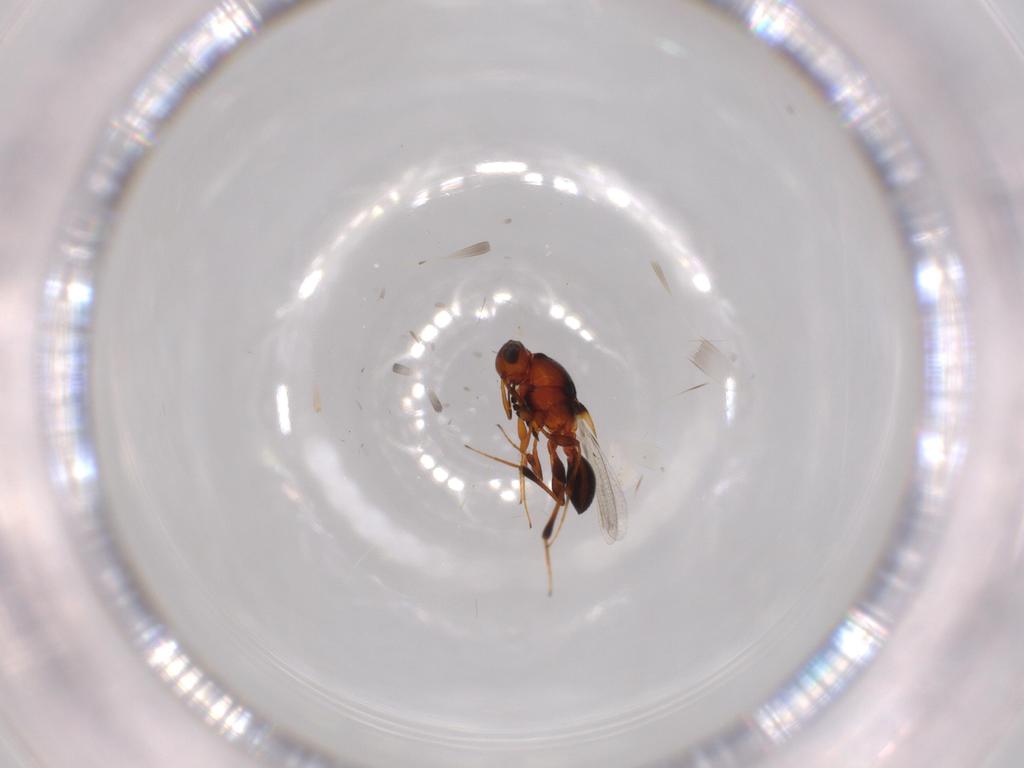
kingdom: Animalia
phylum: Arthropoda
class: Insecta
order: Hymenoptera
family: Platygastridae
